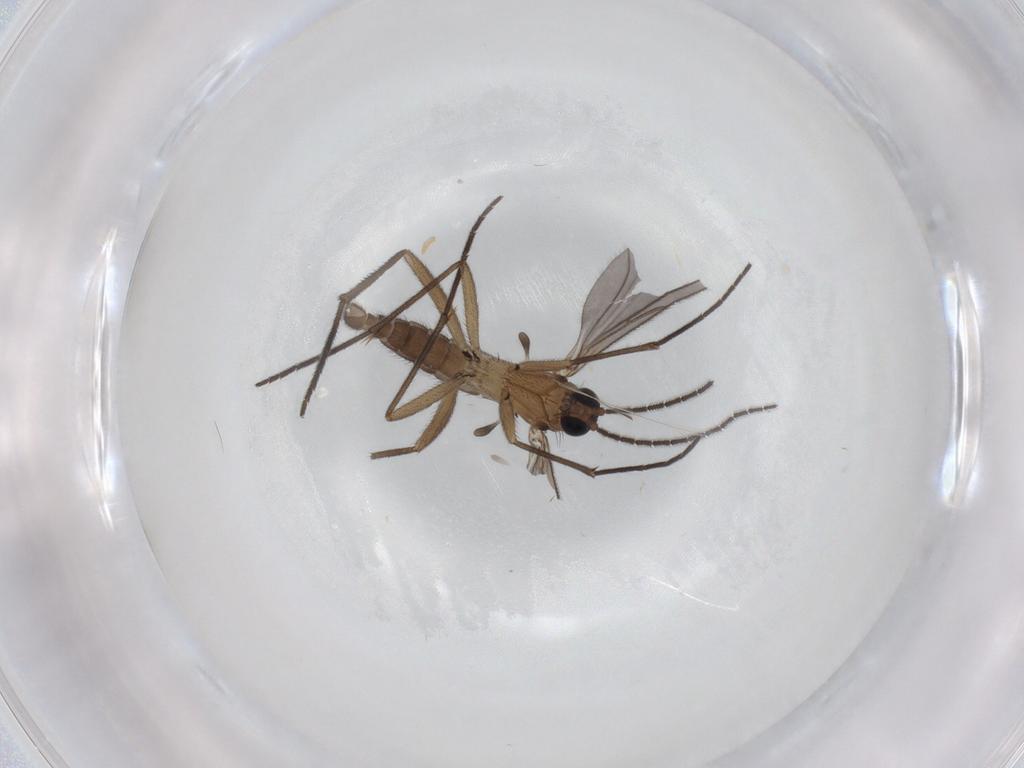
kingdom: Animalia
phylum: Arthropoda
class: Insecta
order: Diptera
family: Sciaridae
